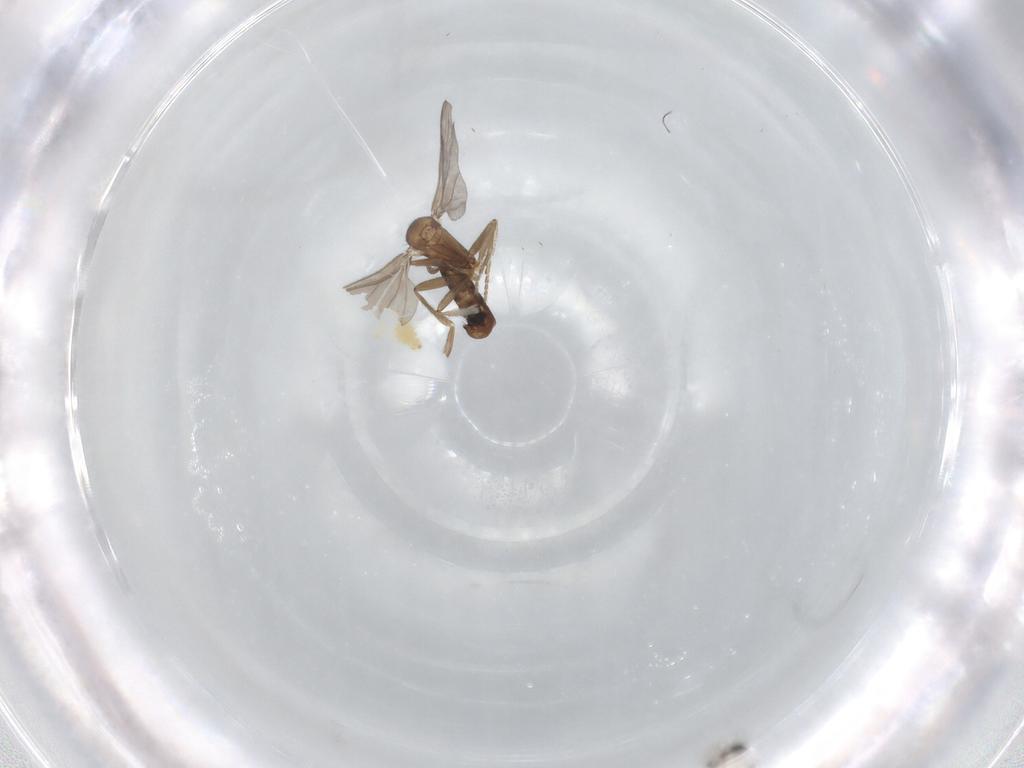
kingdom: Animalia
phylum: Arthropoda
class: Insecta
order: Diptera
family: Phoridae
